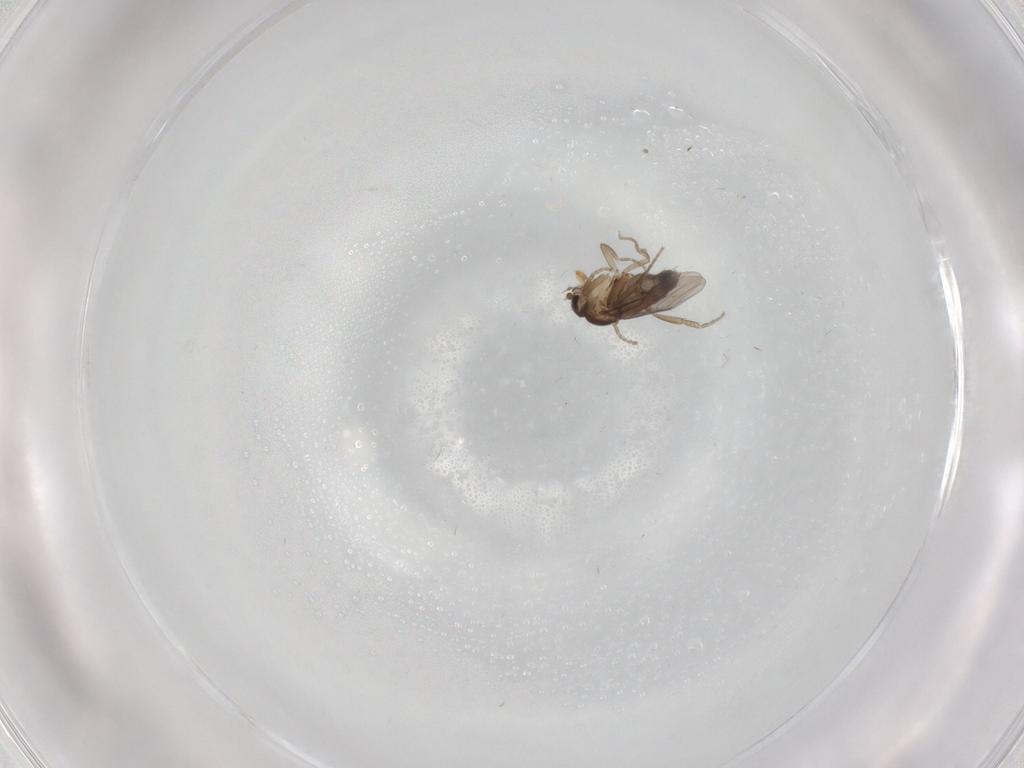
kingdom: Animalia
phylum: Arthropoda
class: Insecta
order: Diptera
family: Phoridae
